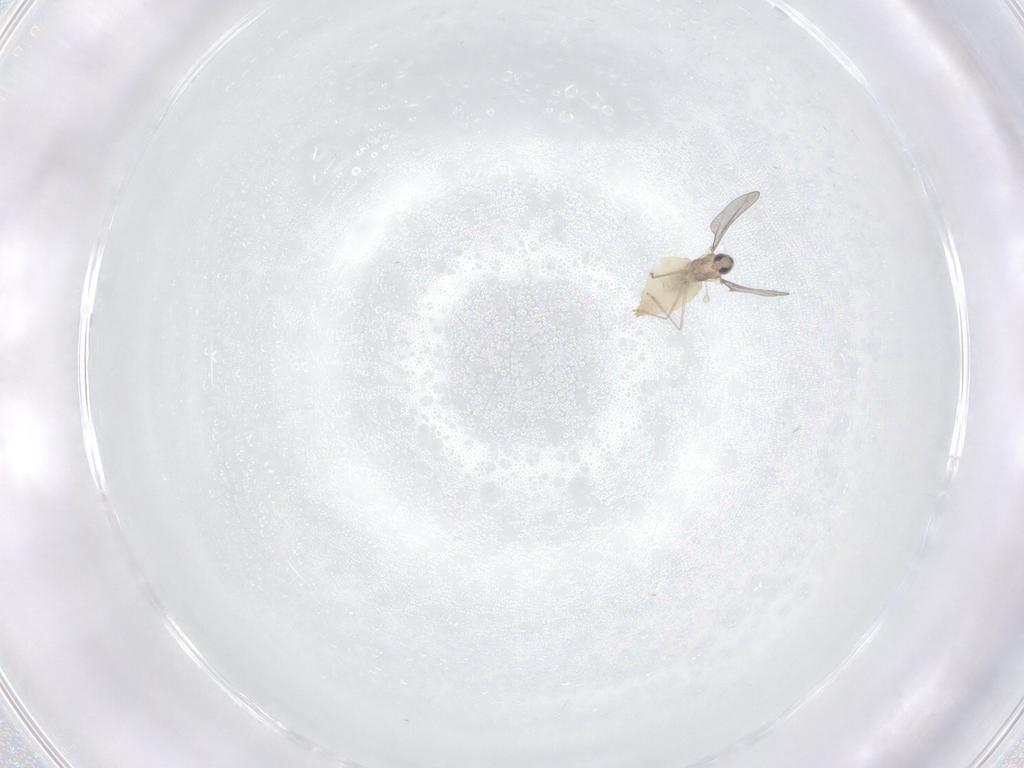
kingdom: Animalia
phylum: Arthropoda
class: Insecta
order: Diptera
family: Cecidomyiidae
